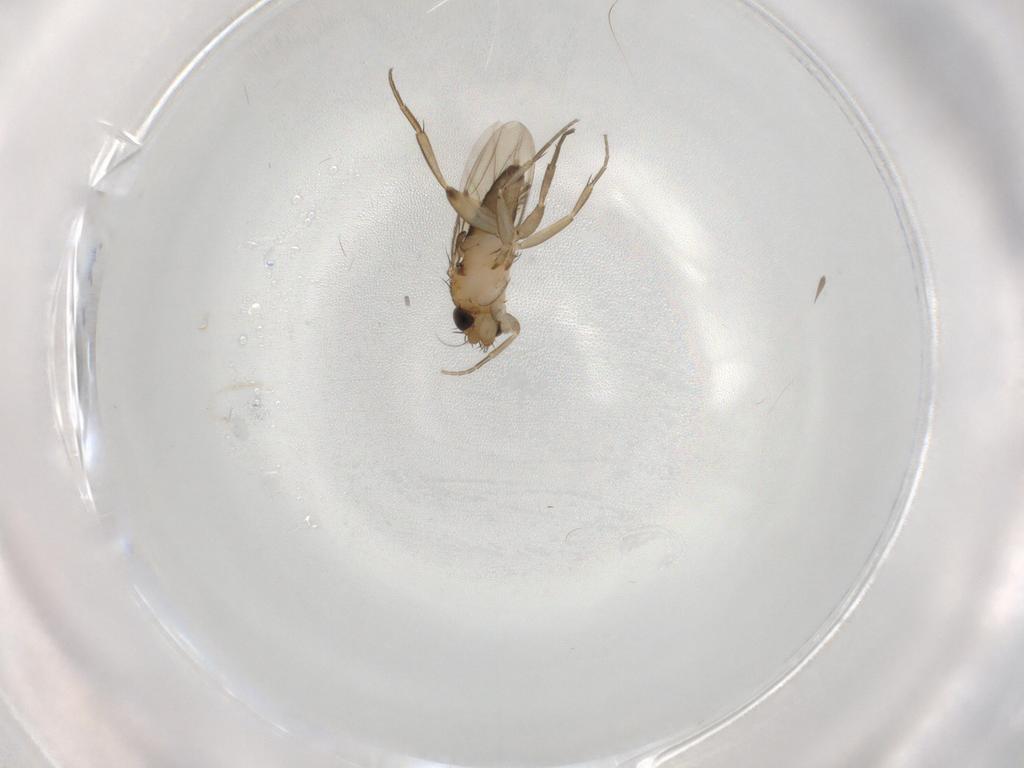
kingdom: Animalia
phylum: Arthropoda
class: Insecta
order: Diptera
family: Phoridae
